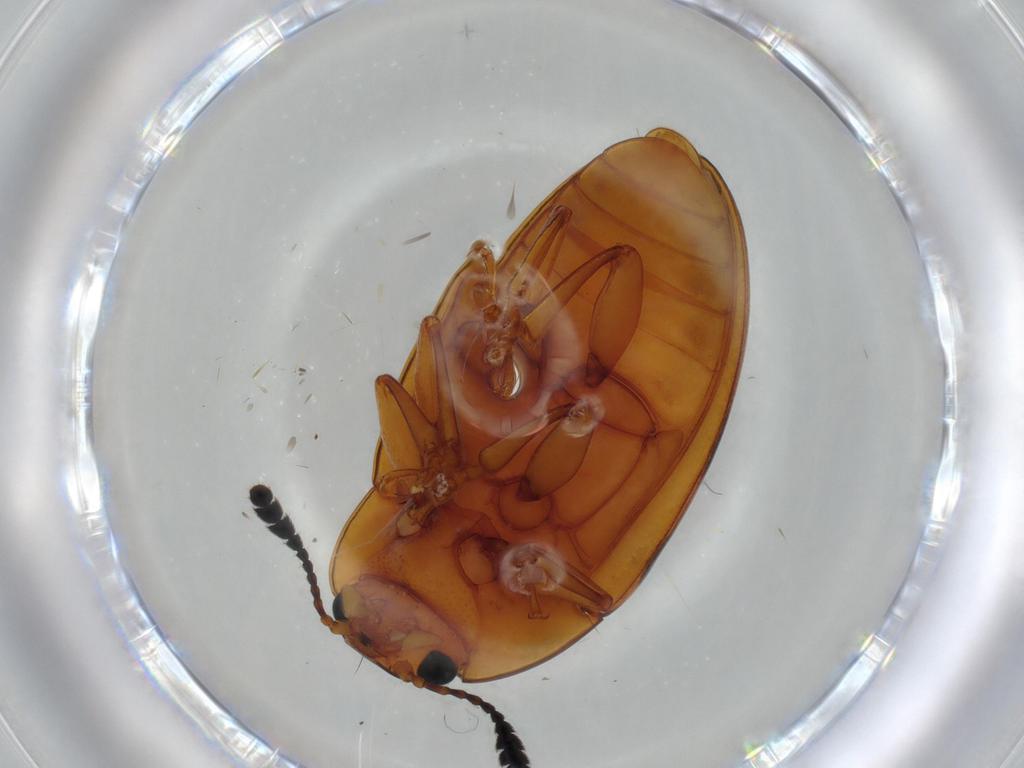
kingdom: Animalia
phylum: Arthropoda
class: Insecta
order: Coleoptera
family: Erotylidae
